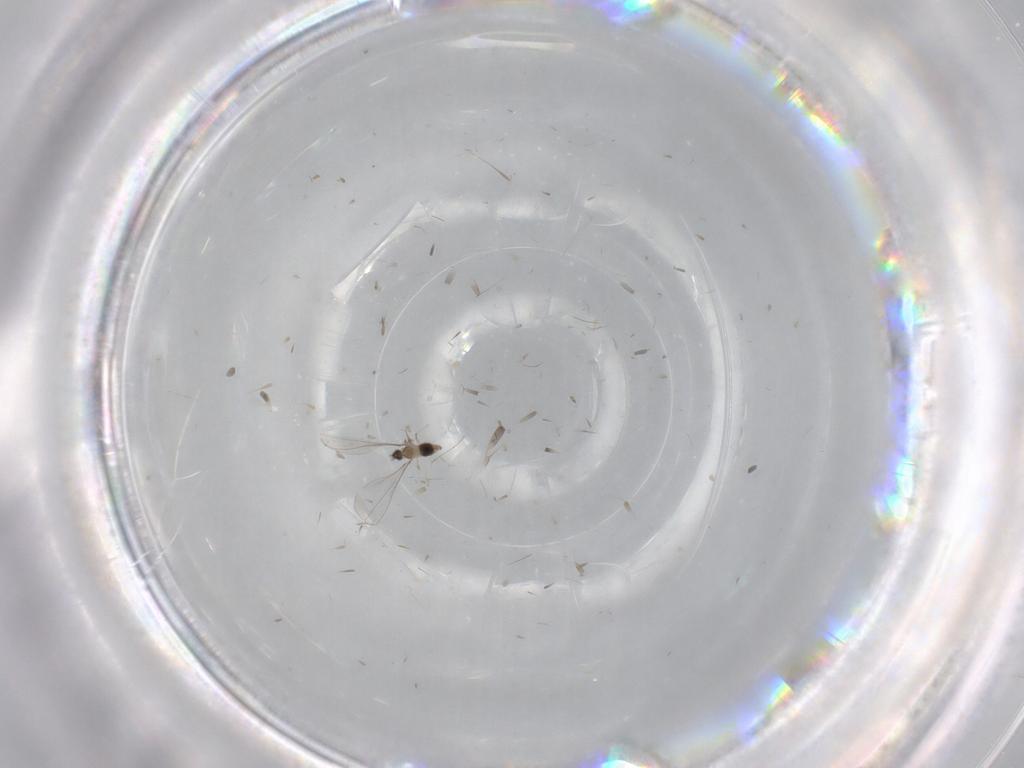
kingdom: Animalia
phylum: Arthropoda
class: Insecta
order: Diptera
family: Cecidomyiidae
